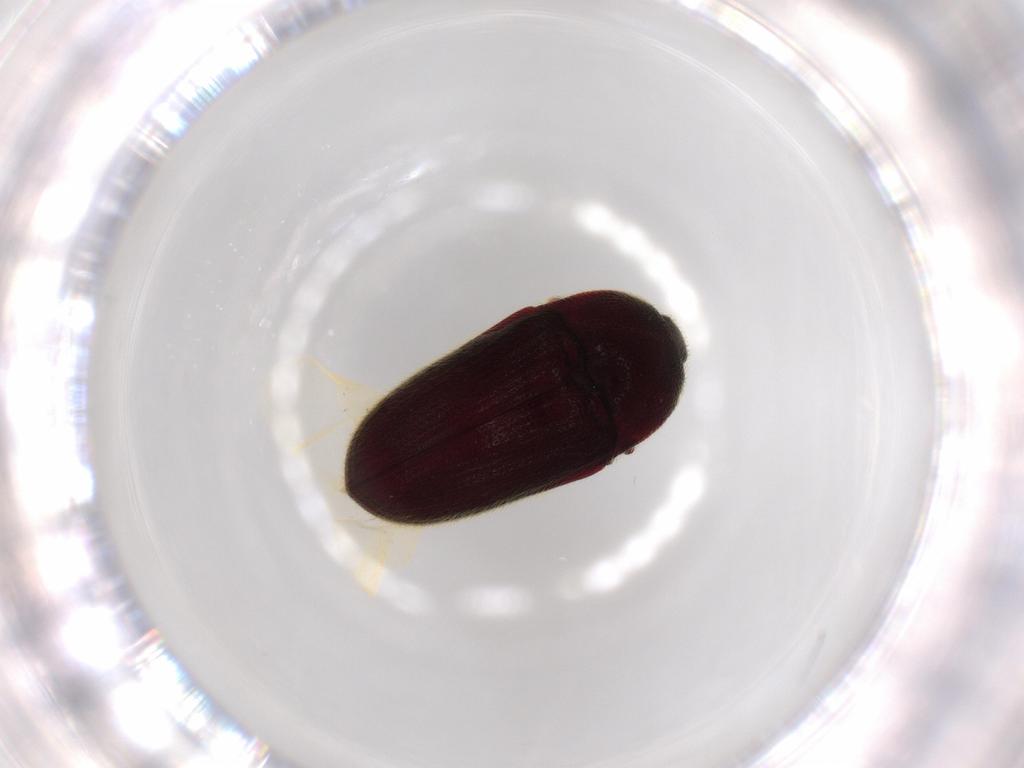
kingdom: Animalia
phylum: Arthropoda
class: Insecta
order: Coleoptera
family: Throscidae
